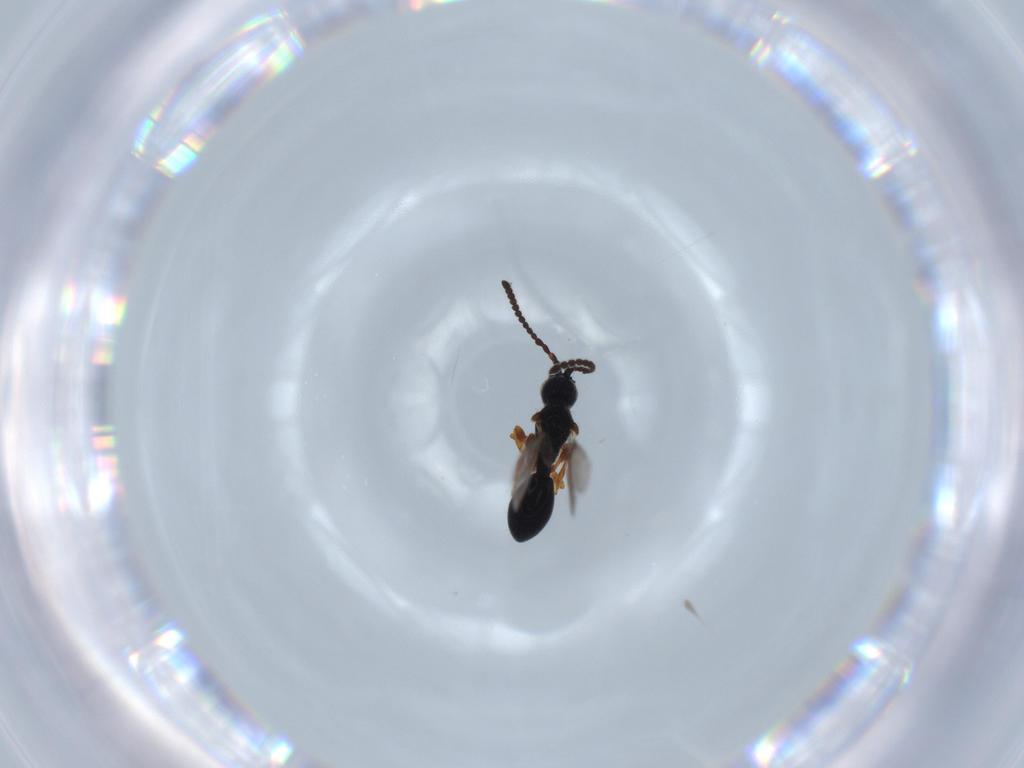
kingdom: Animalia
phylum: Arthropoda
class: Insecta
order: Hymenoptera
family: Diapriidae
